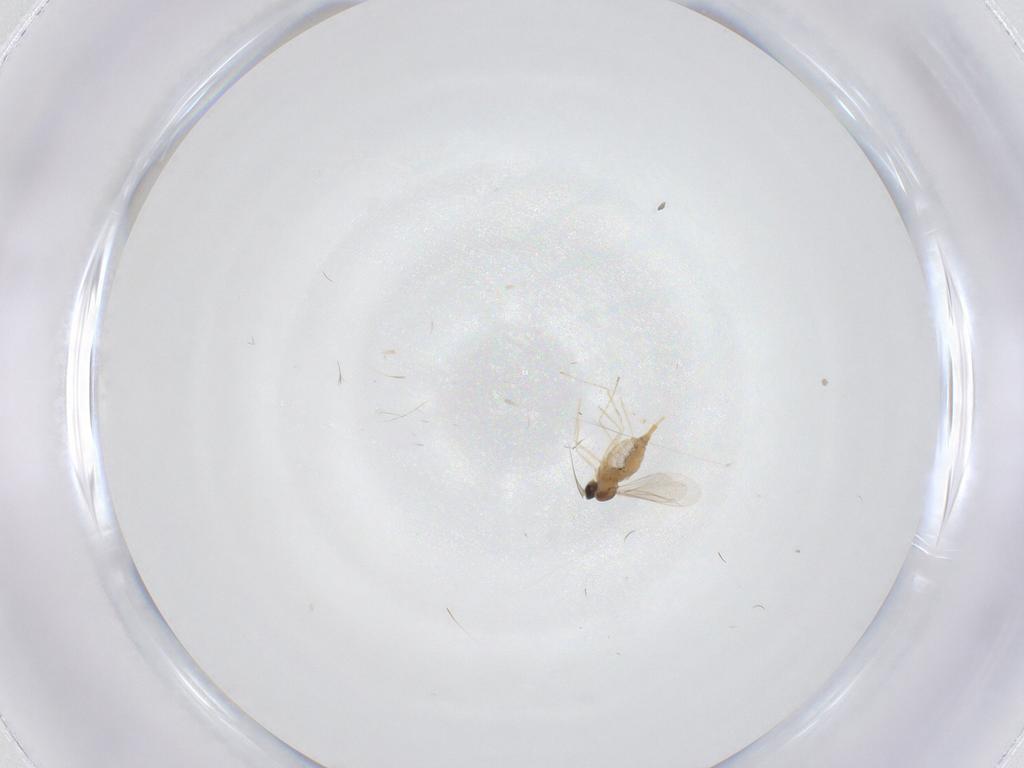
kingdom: Animalia
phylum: Arthropoda
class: Insecta
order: Diptera
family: Cecidomyiidae
